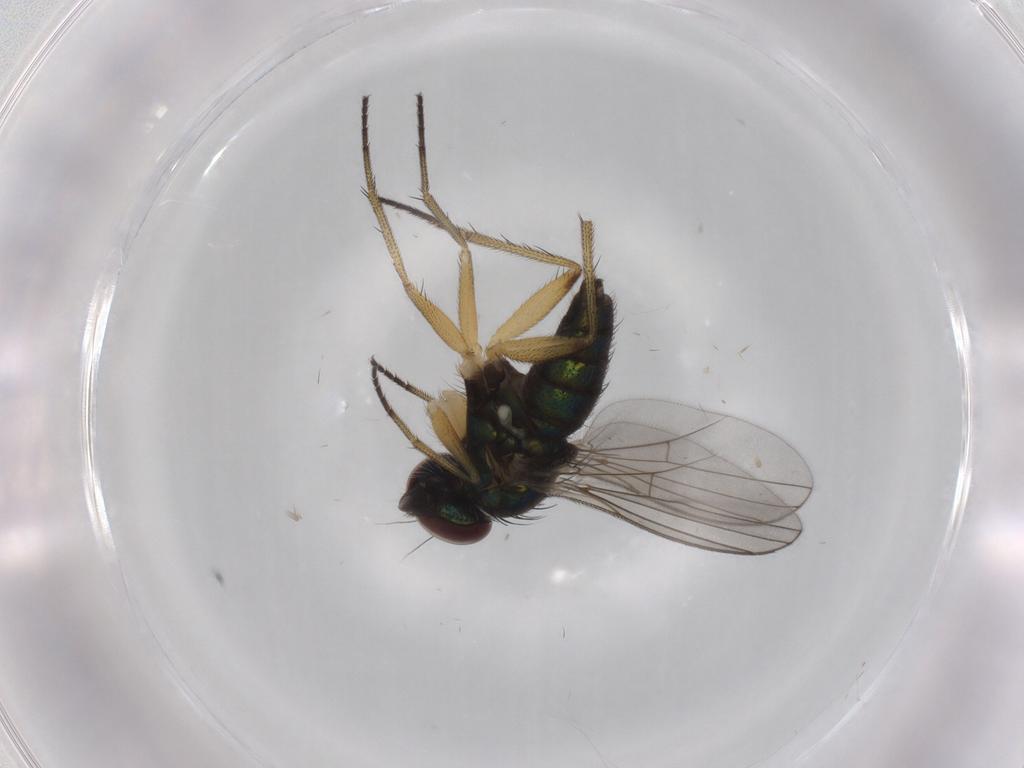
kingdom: Animalia
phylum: Arthropoda
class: Insecta
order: Diptera
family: Dolichopodidae
